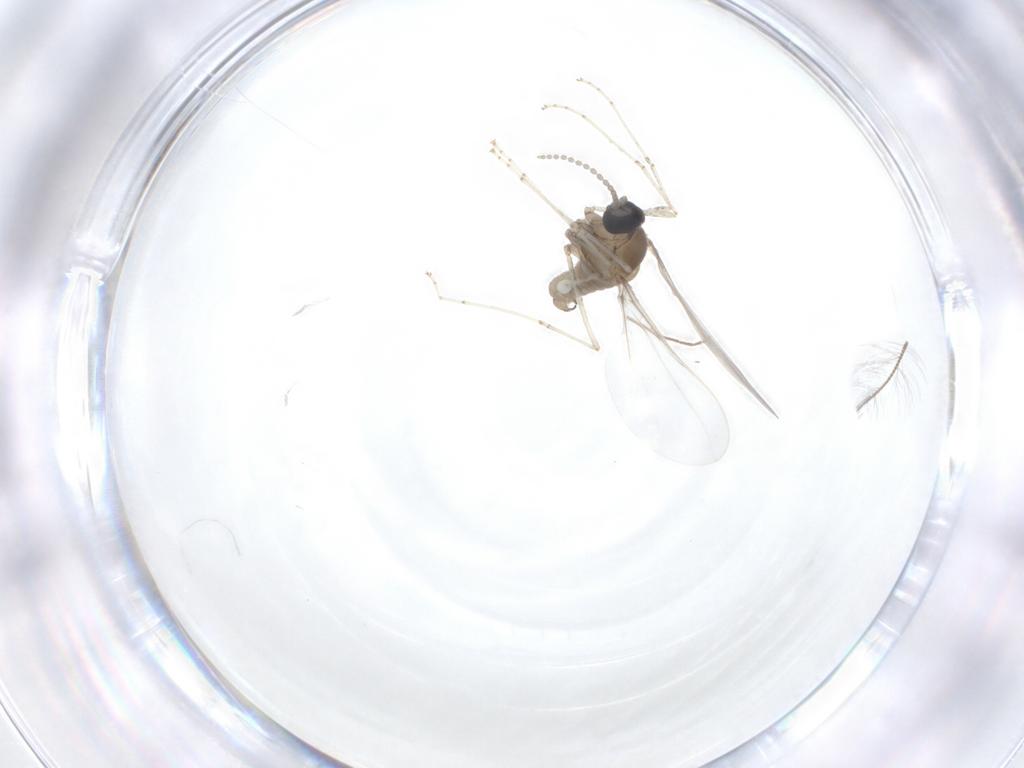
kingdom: Animalia
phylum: Arthropoda
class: Insecta
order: Diptera
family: Cecidomyiidae
